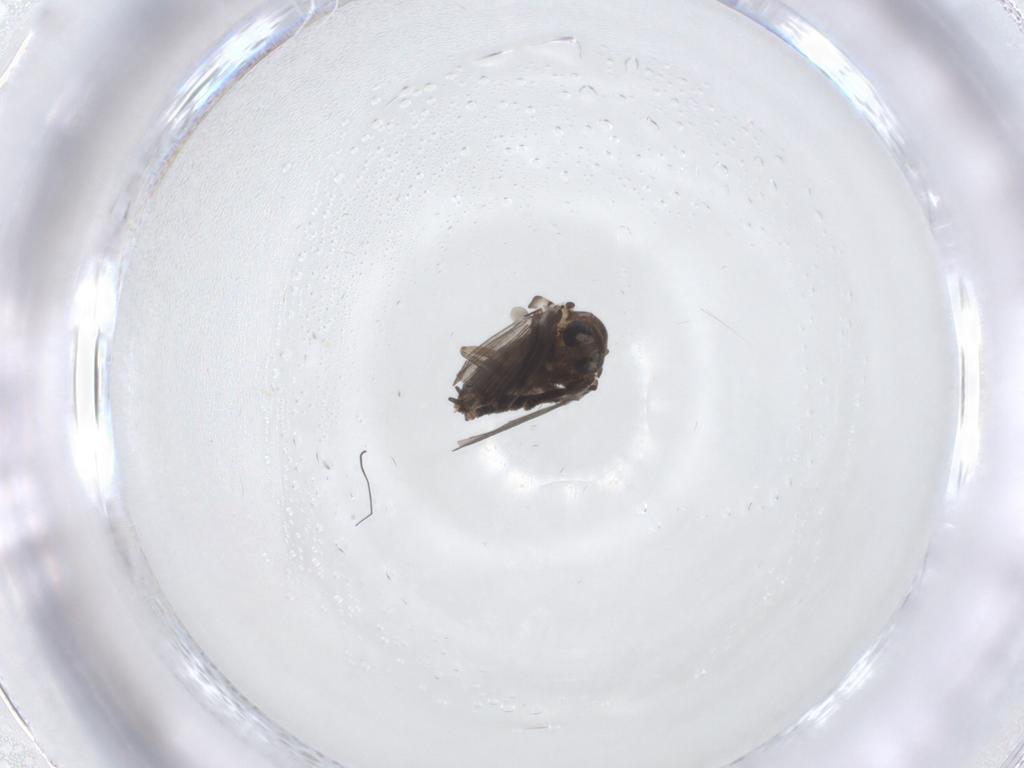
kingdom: Animalia
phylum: Arthropoda
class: Insecta
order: Diptera
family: Psychodidae
